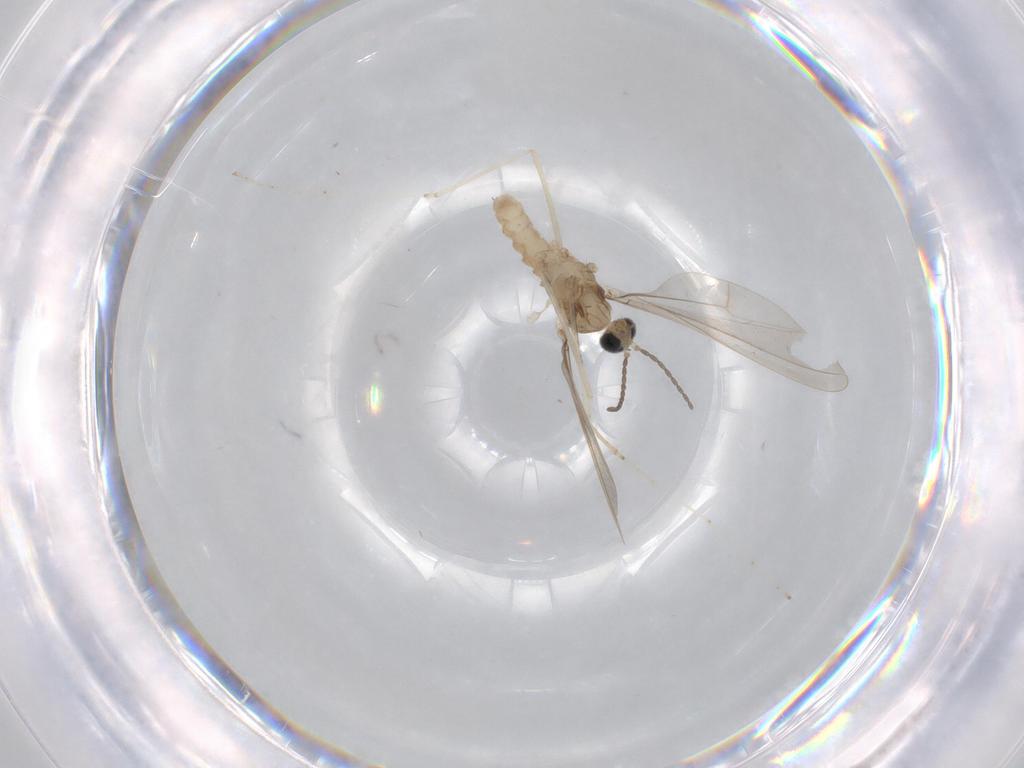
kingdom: Animalia
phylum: Arthropoda
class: Insecta
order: Diptera
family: Cecidomyiidae
